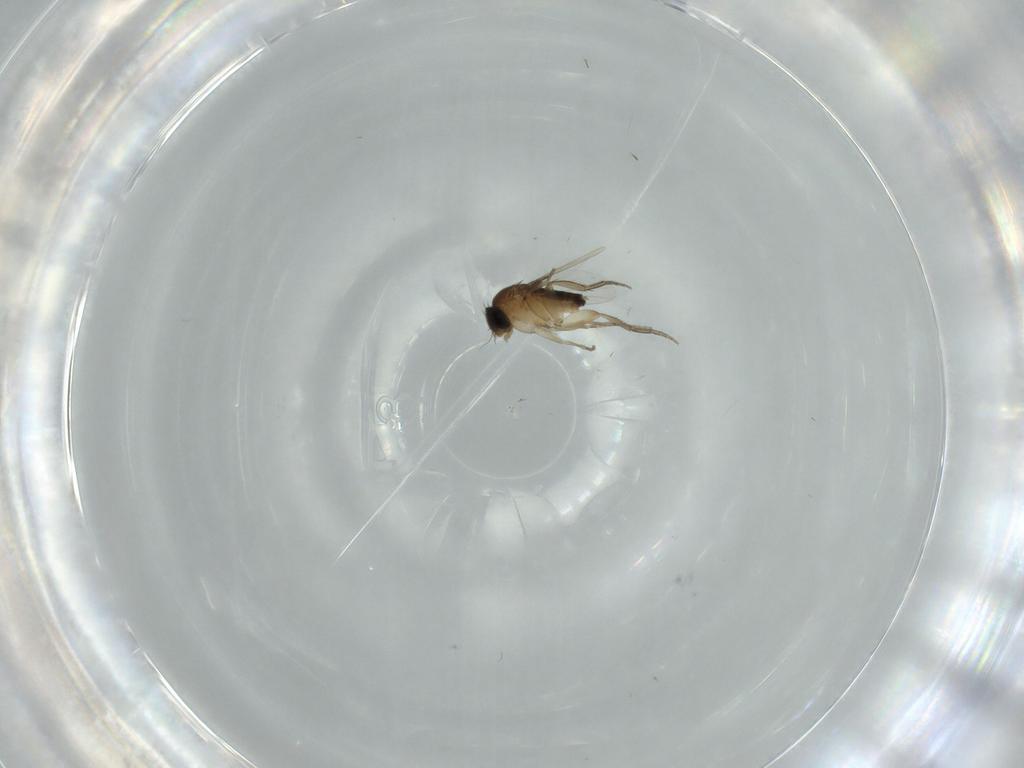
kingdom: Animalia
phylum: Arthropoda
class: Insecta
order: Diptera
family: Phoridae
